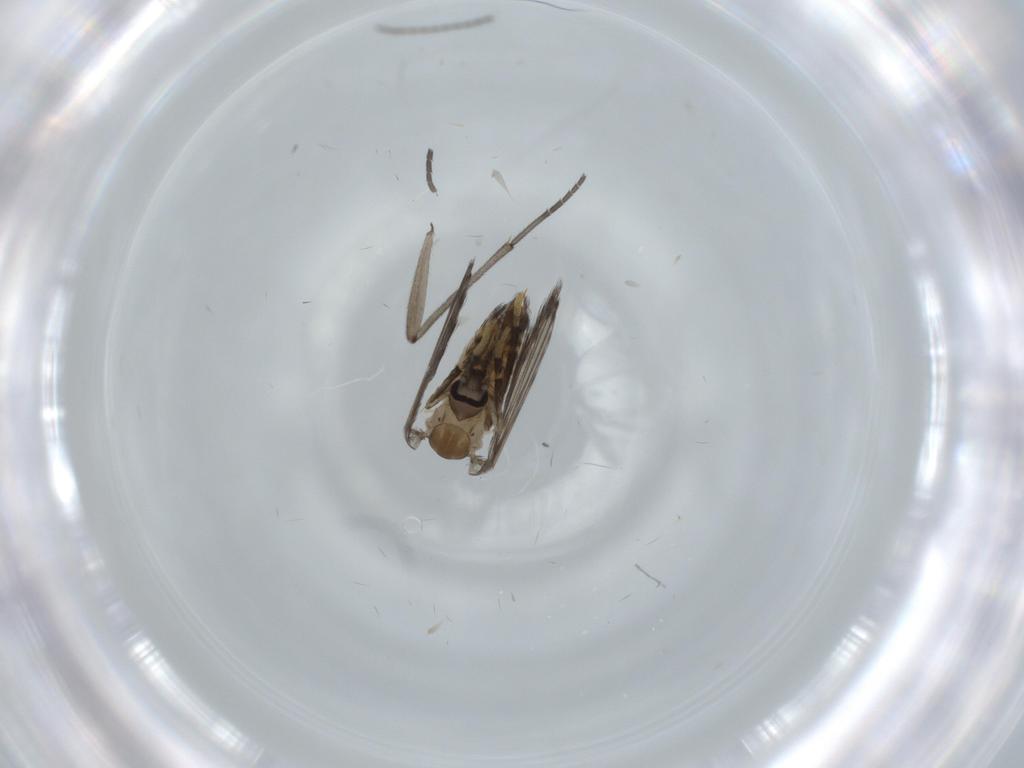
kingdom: Animalia
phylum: Arthropoda
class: Insecta
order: Diptera
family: Psychodidae
